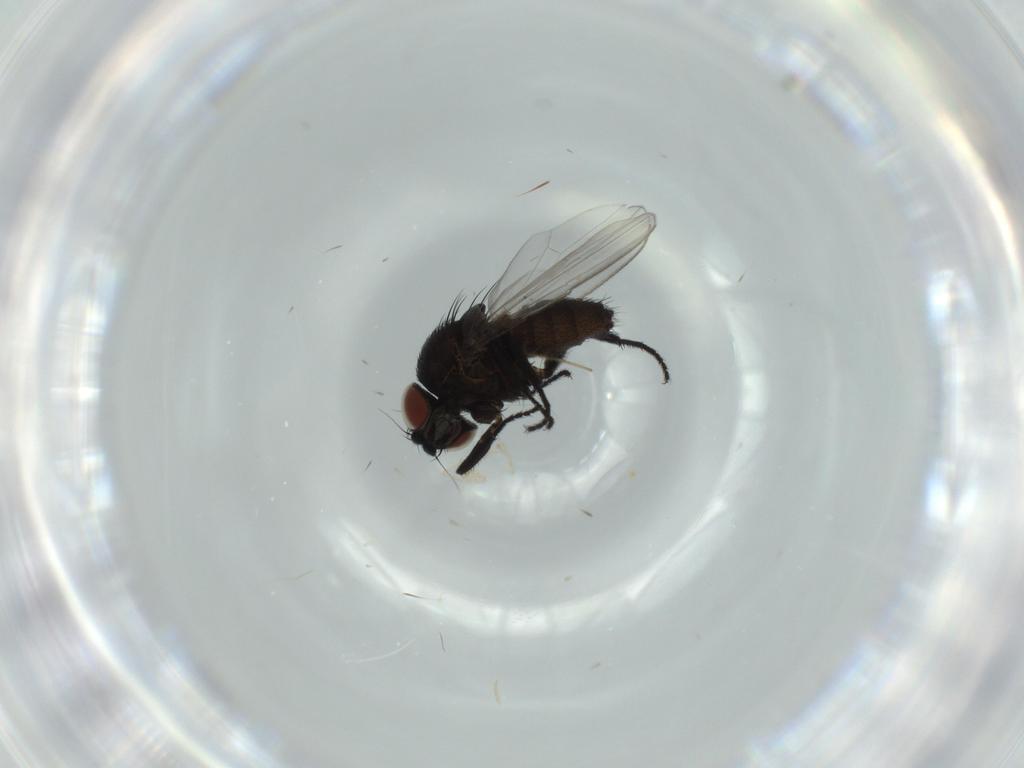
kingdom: Animalia
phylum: Arthropoda
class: Insecta
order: Diptera
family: Milichiidae
